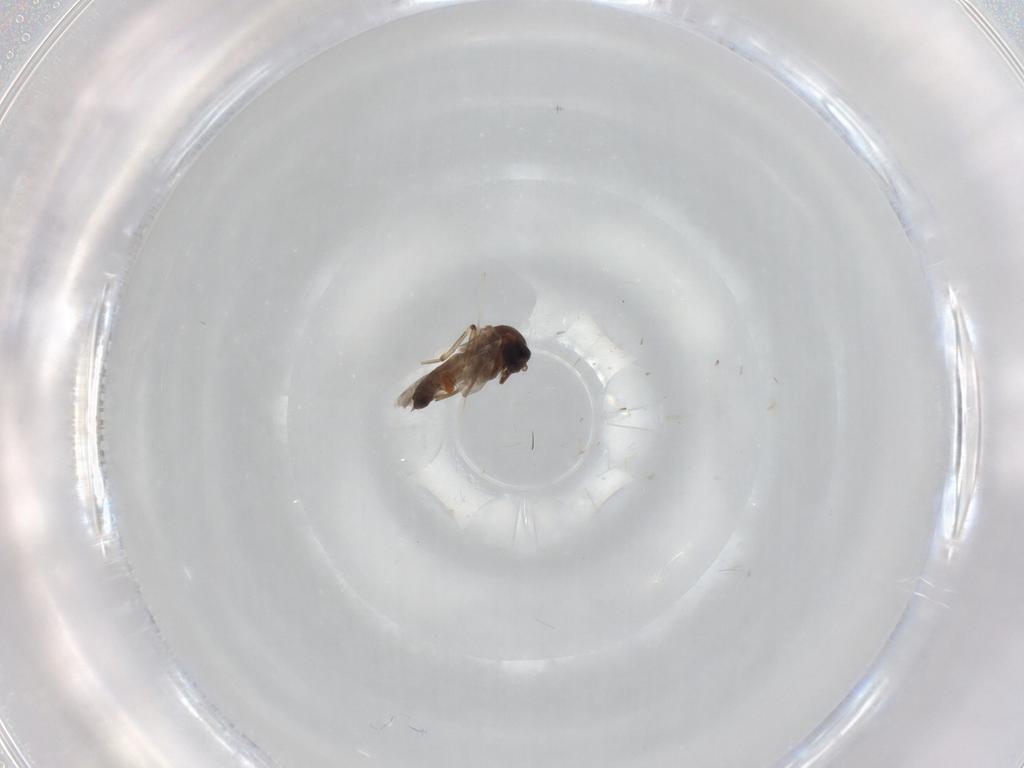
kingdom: Animalia
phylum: Arthropoda
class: Insecta
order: Diptera
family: Ceratopogonidae
